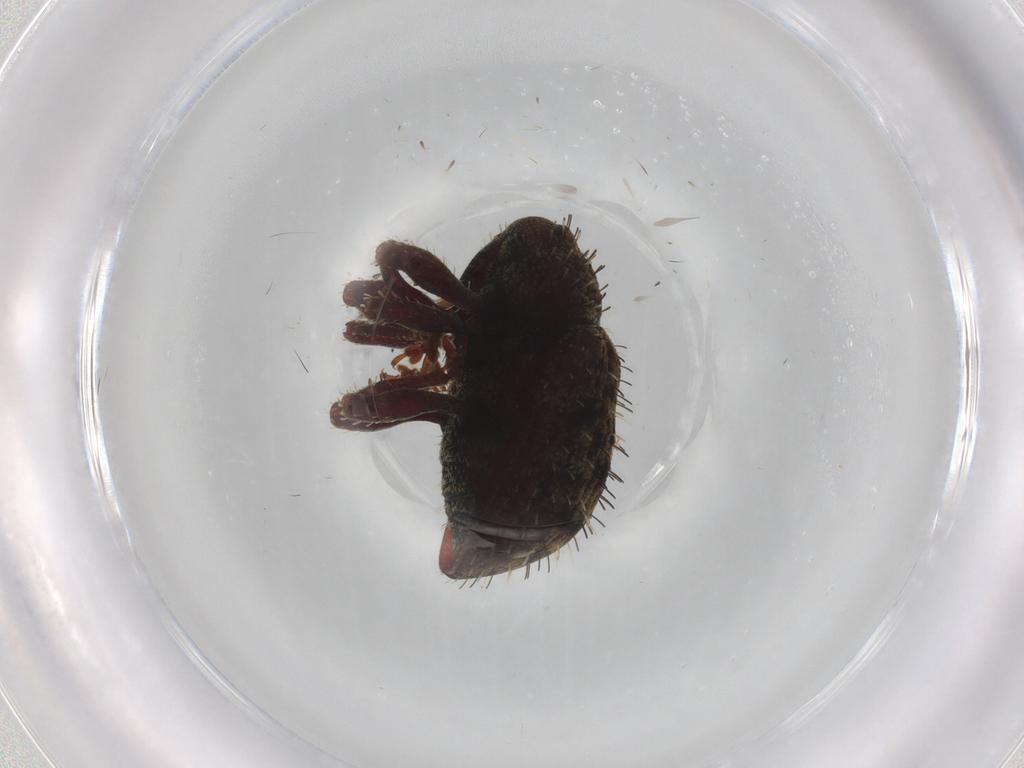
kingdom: Animalia
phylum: Arthropoda
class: Insecta
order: Coleoptera
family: Curculionidae
